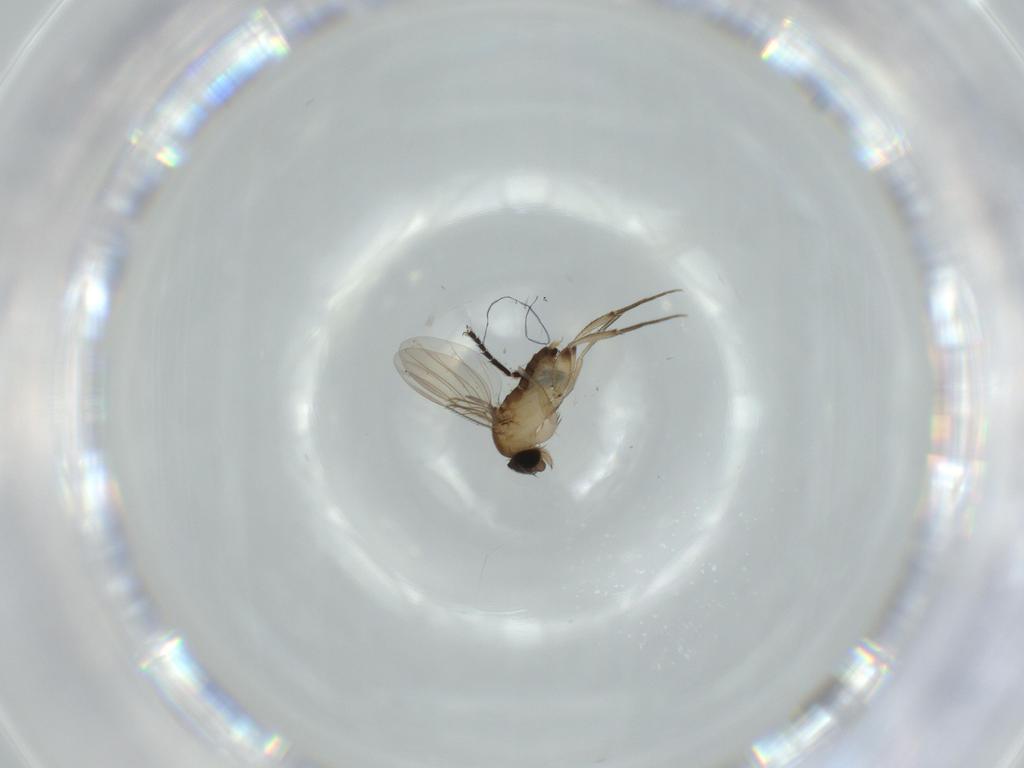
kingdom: Animalia
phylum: Arthropoda
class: Insecta
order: Diptera
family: Phoridae
